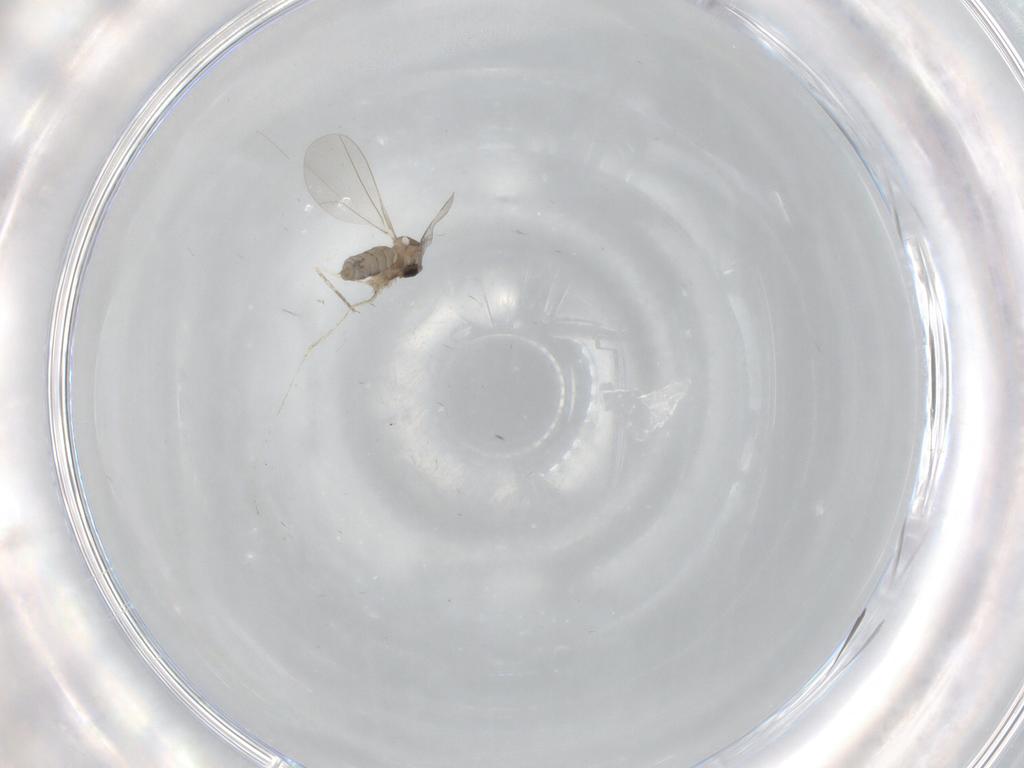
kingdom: Animalia
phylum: Arthropoda
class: Insecta
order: Diptera
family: Cecidomyiidae
